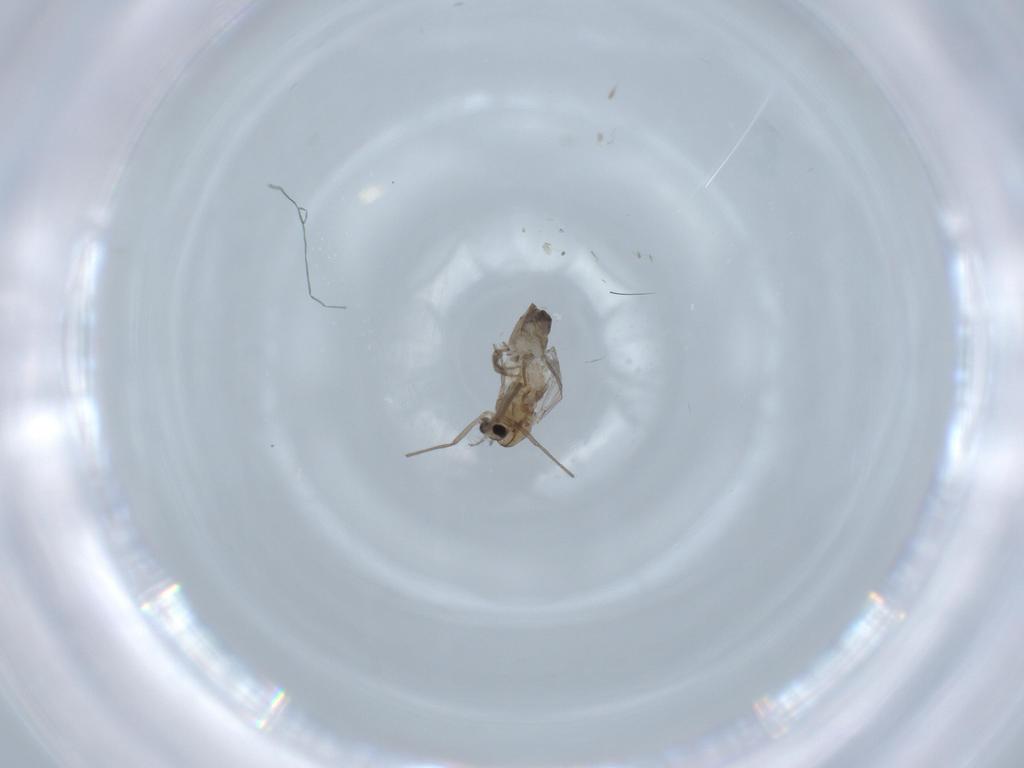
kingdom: Animalia
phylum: Arthropoda
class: Insecta
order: Diptera
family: Chironomidae
